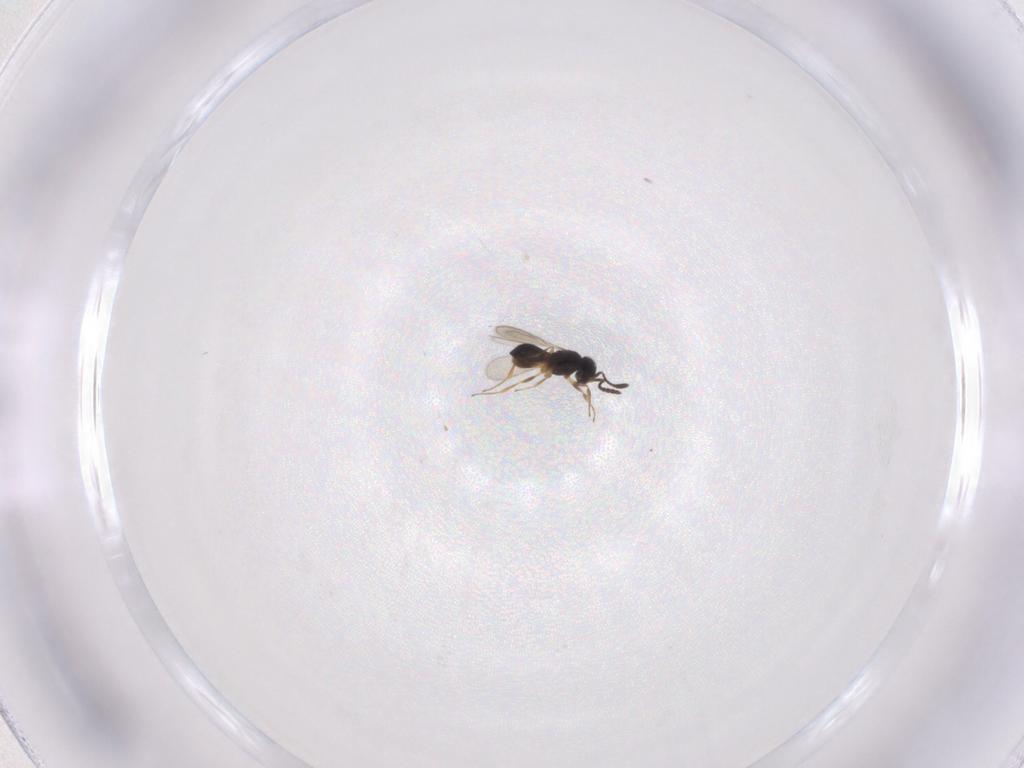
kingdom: Animalia
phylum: Arthropoda
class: Insecta
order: Hymenoptera
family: Scelionidae
